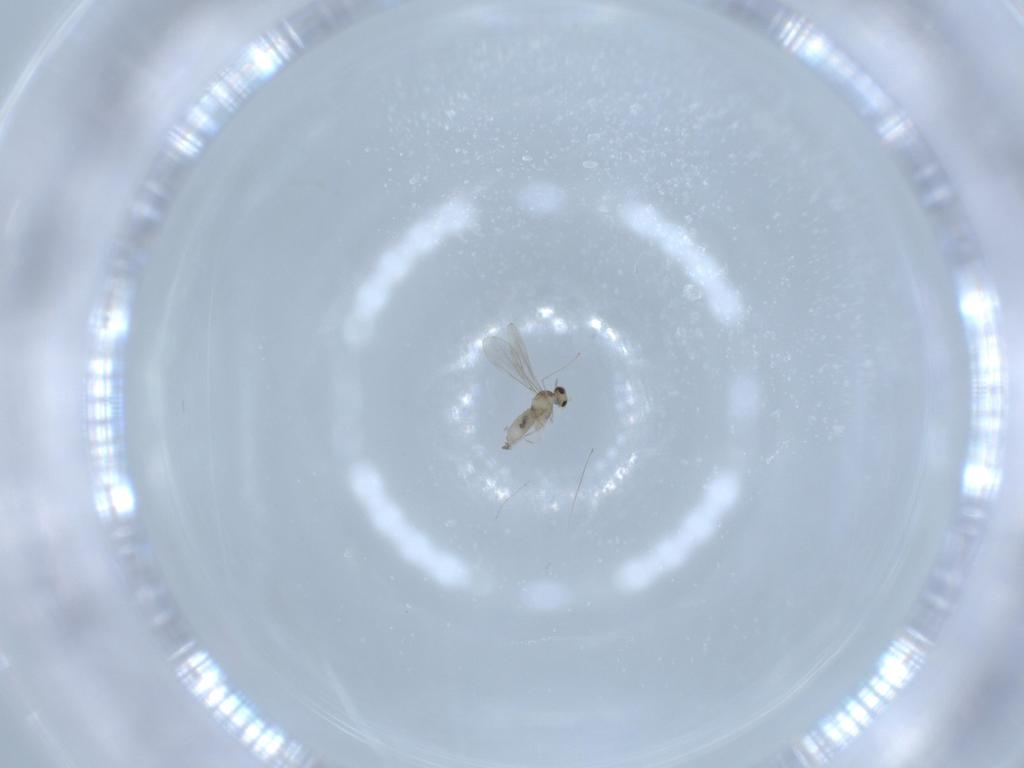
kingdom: Animalia
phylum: Arthropoda
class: Insecta
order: Diptera
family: Cecidomyiidae
